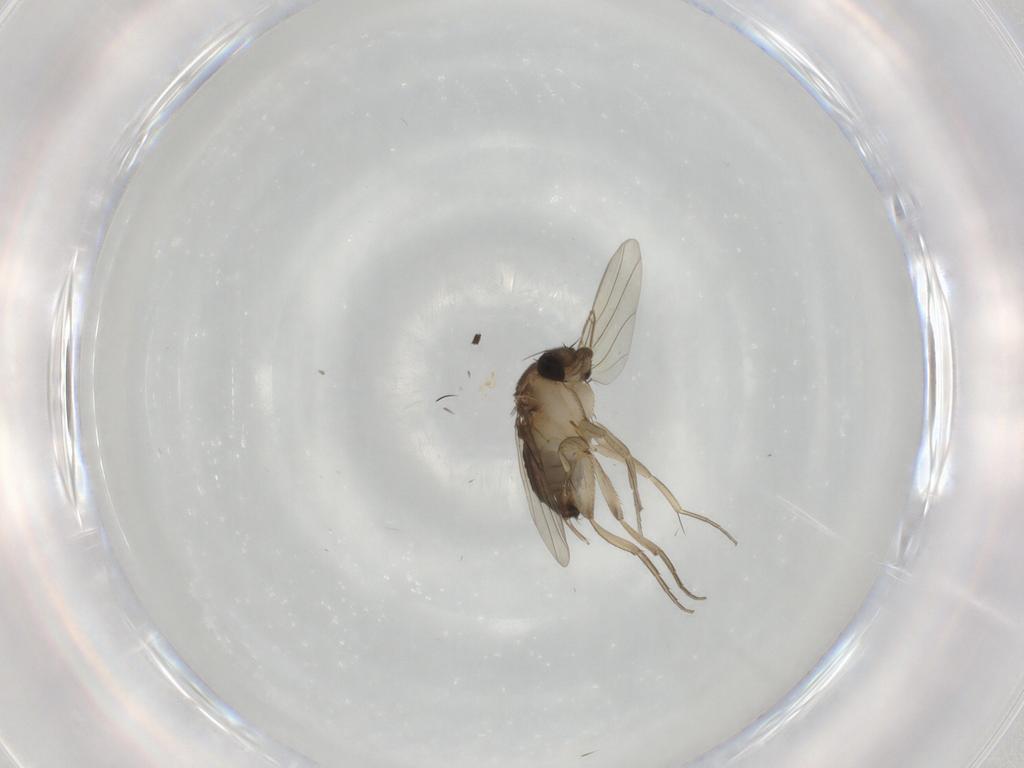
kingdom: Animalia
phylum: Arthropoda
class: Insecta
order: Diptera
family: Phoridae
